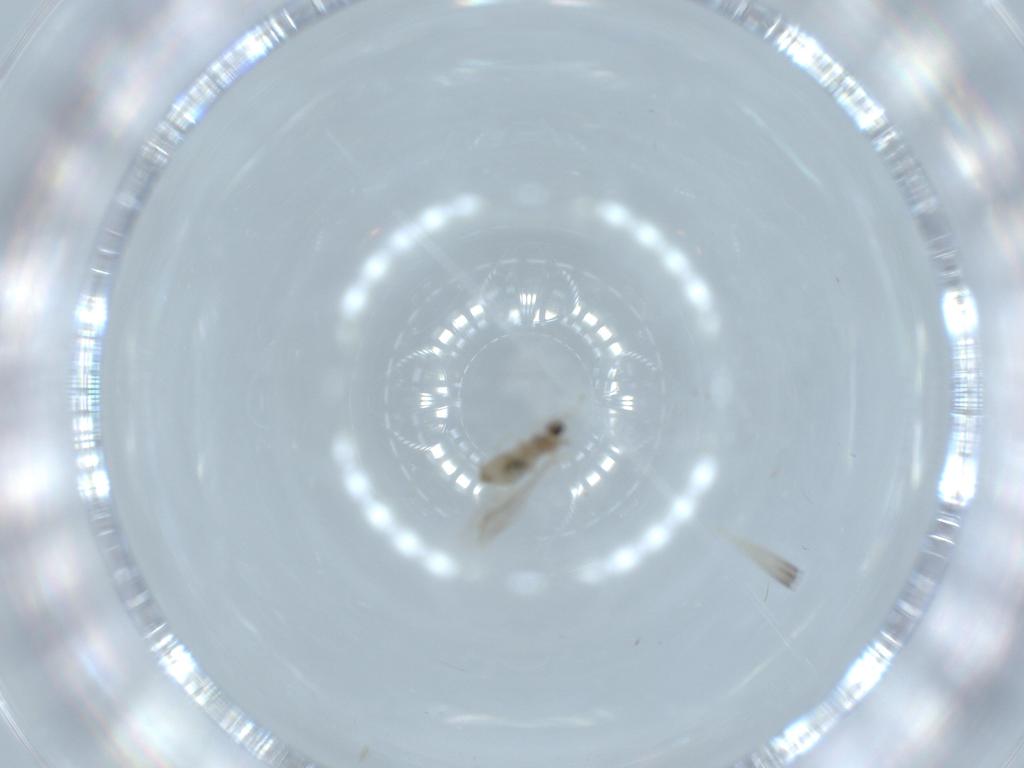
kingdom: Animalia
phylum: Arthropoda
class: Insecta
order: Diptera
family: Cecidomyiidae
